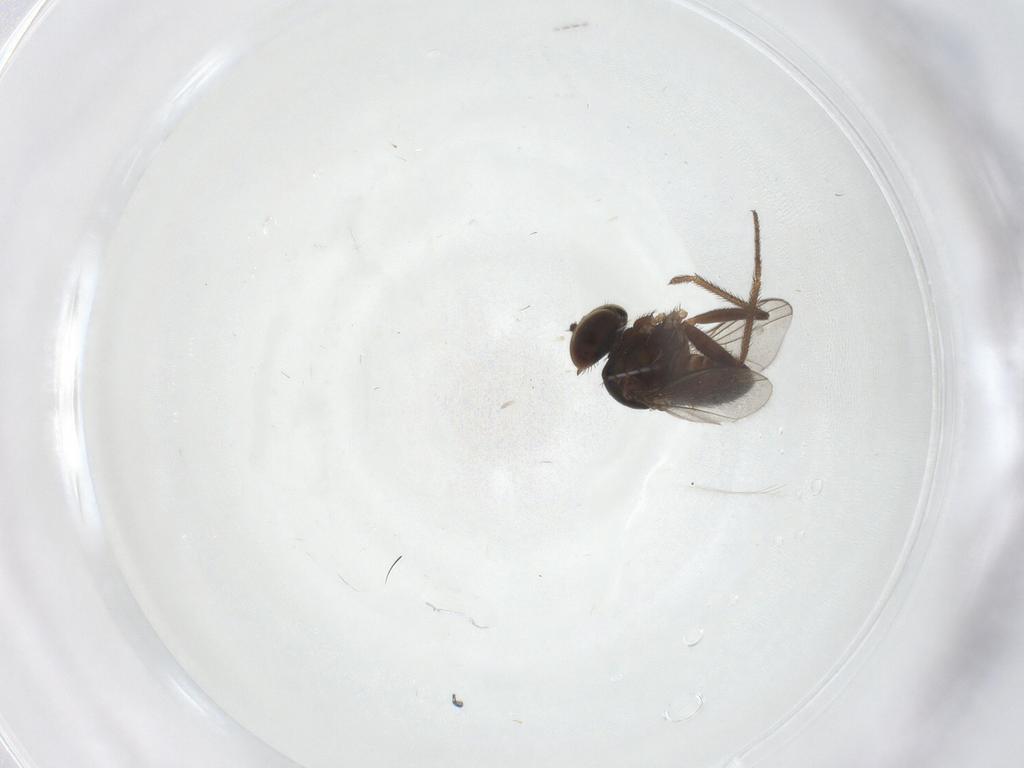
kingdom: Animalia
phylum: Arthropoda
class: Insecta
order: Diptera
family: Dolichopodidae
